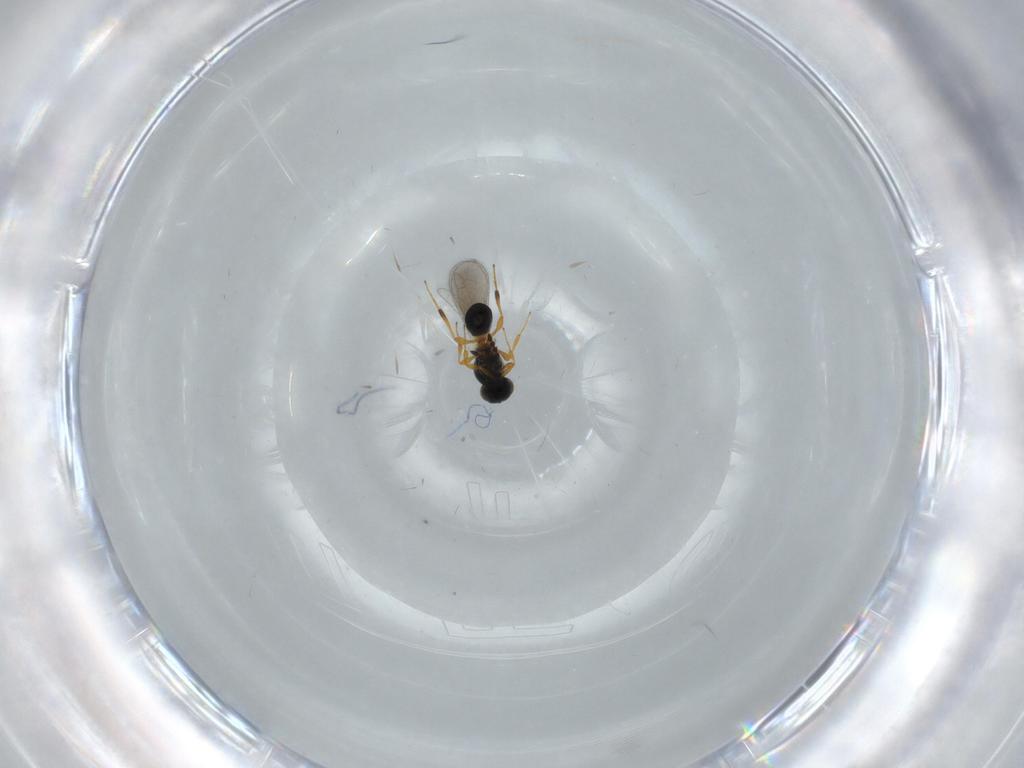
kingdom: Animalia
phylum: Arthropoda
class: Insecta
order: Hymenoptera
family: Platygastridae
